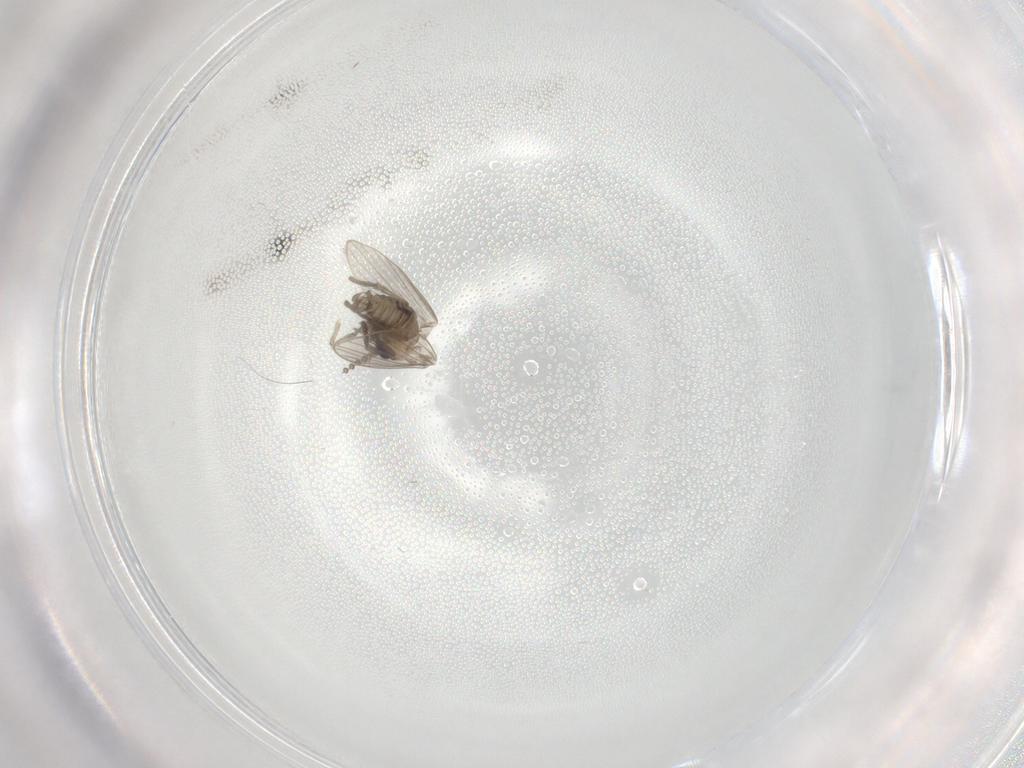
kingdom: Animalia
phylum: Arthropoda
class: Insecta
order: Diptera
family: Psychodidae
